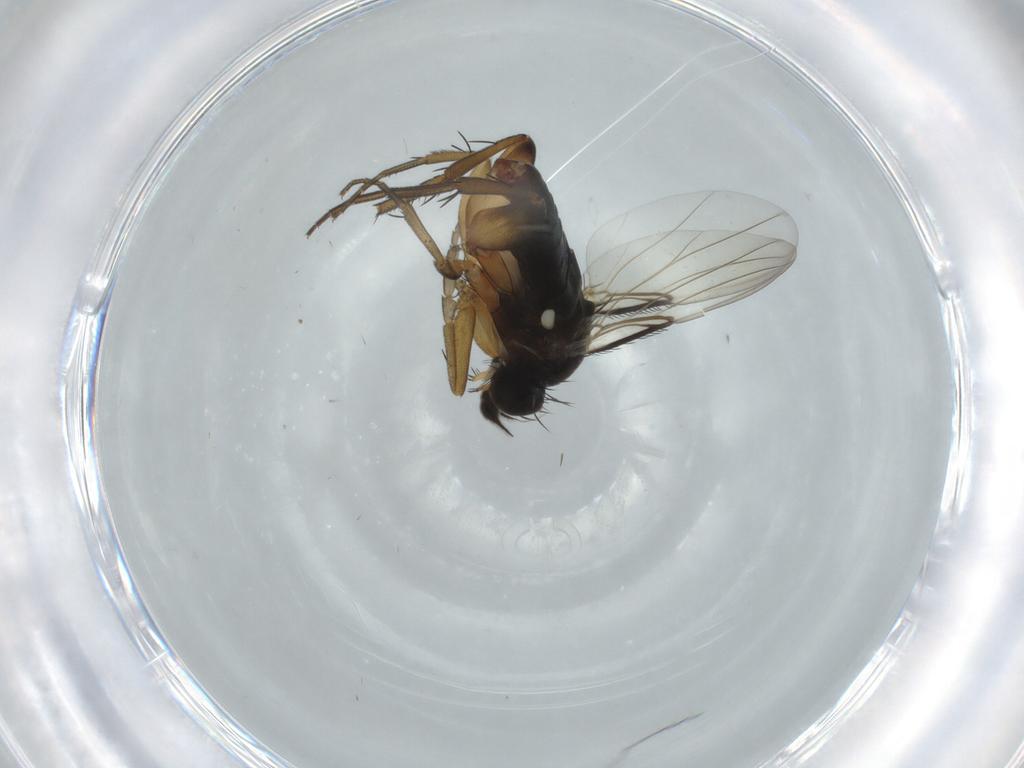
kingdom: Animalia
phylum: Arthropoda
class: Insecta
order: Diptera
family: Phoridae
